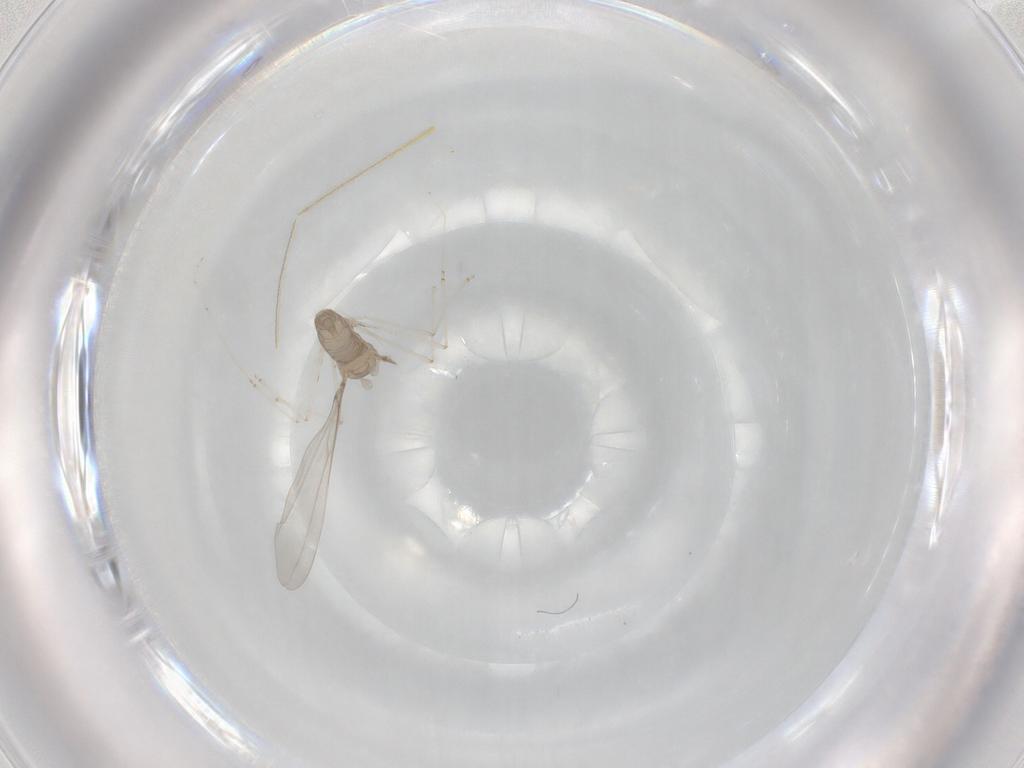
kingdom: Animalia
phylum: Arthropoda
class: Insecta
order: Diptera
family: Cecidomyiidae
